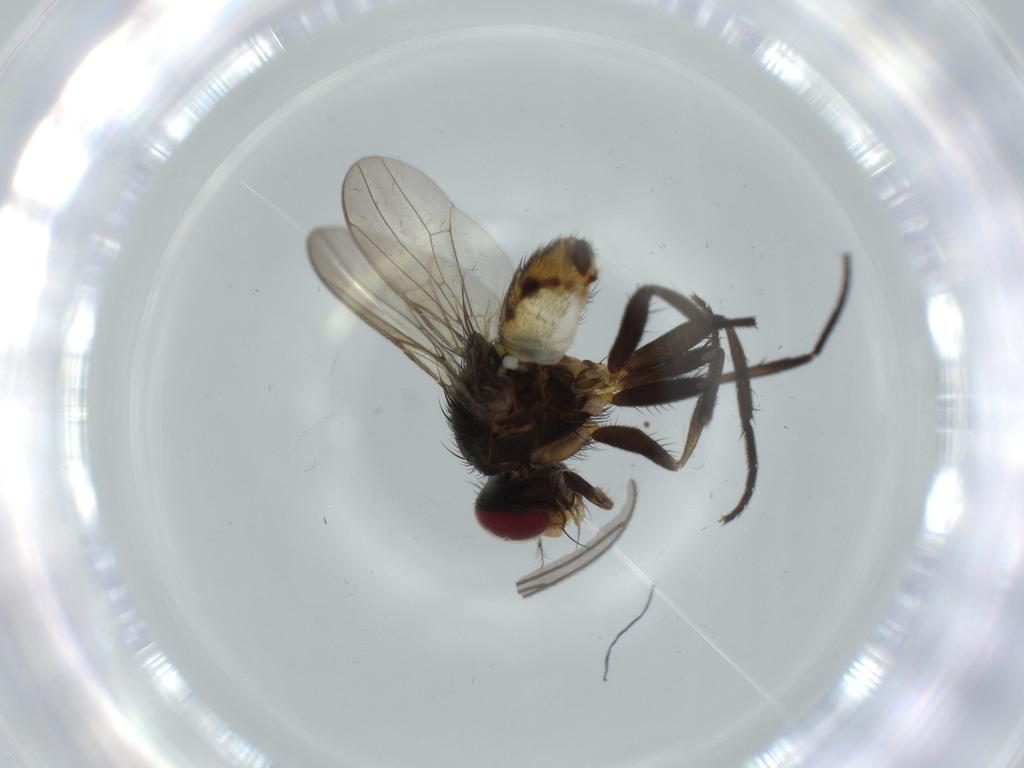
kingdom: Animalia
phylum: Arthropoda
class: Insecta
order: Diptera
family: Anthomyiidae
